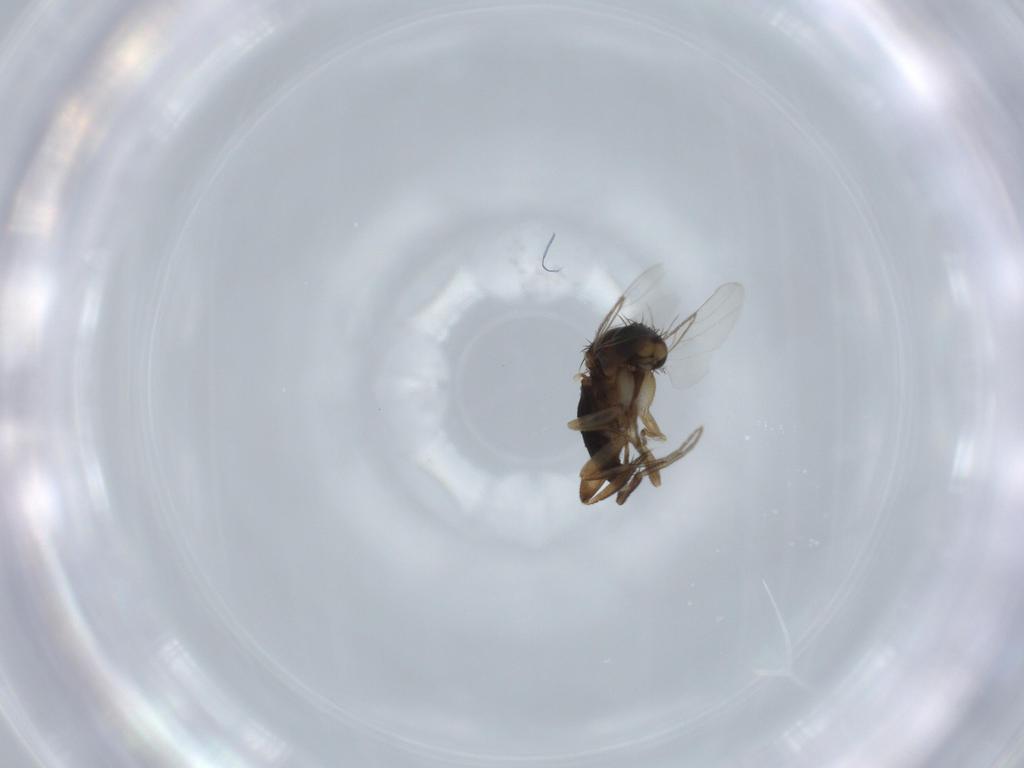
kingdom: Animalia
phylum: Arthropoda
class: Insecta
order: Diptera
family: Phoridae
